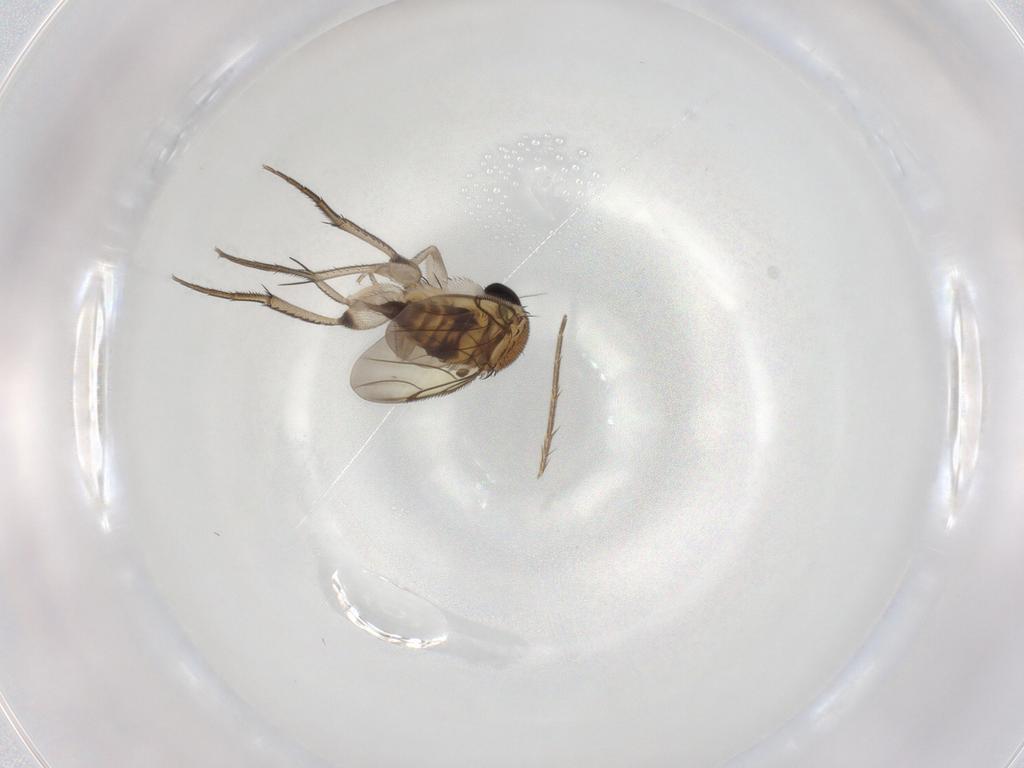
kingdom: Animalia
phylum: Arthropoda
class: Insecta
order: Diptera
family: Phoridae
